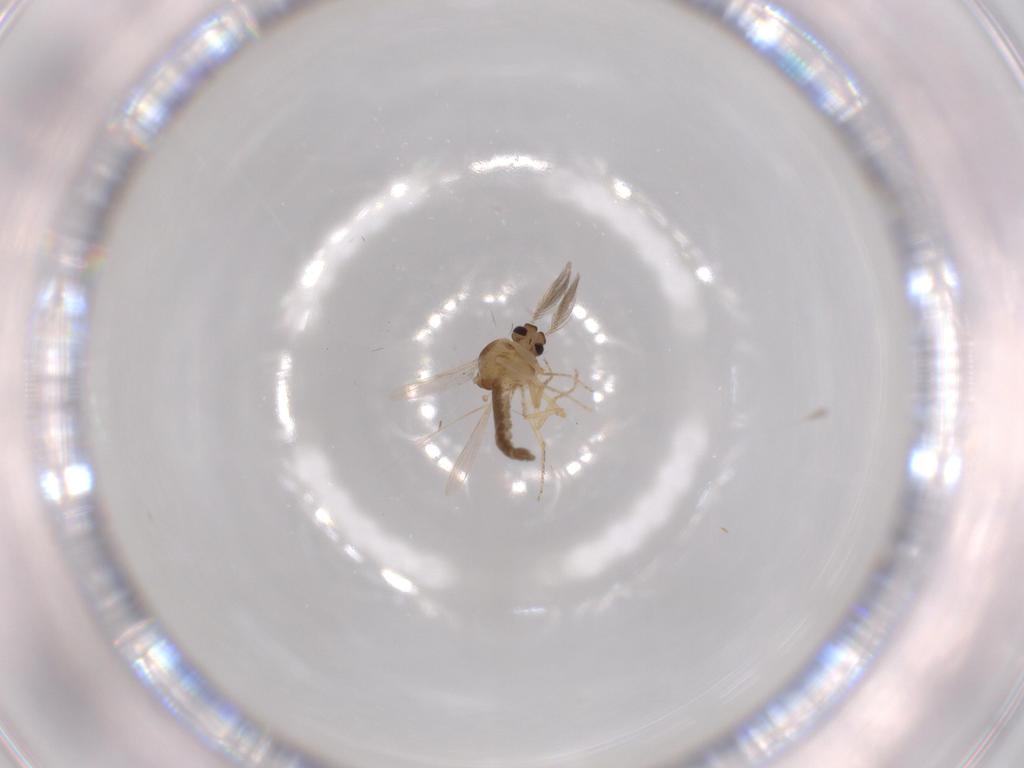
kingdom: Animalia
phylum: Arthropoda
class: Insecta
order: Diptera
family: Ceratopogonidae
